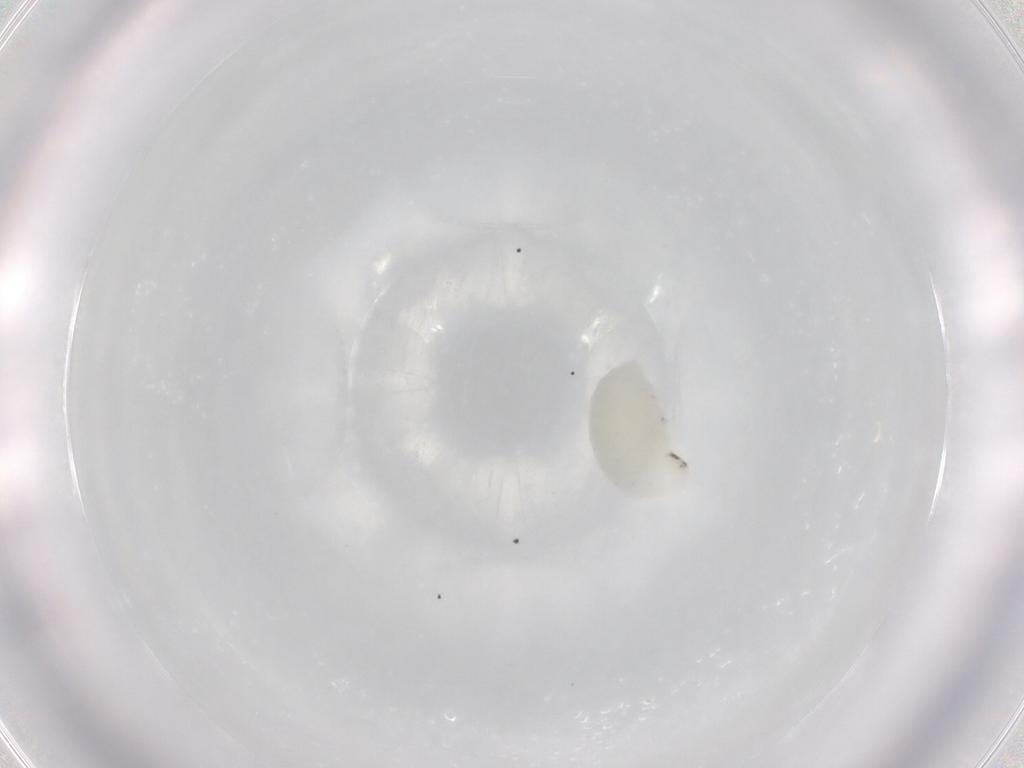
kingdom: Animalia
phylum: Arthropoda
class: Insecta
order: Hymenoptera
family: Eulophidae
